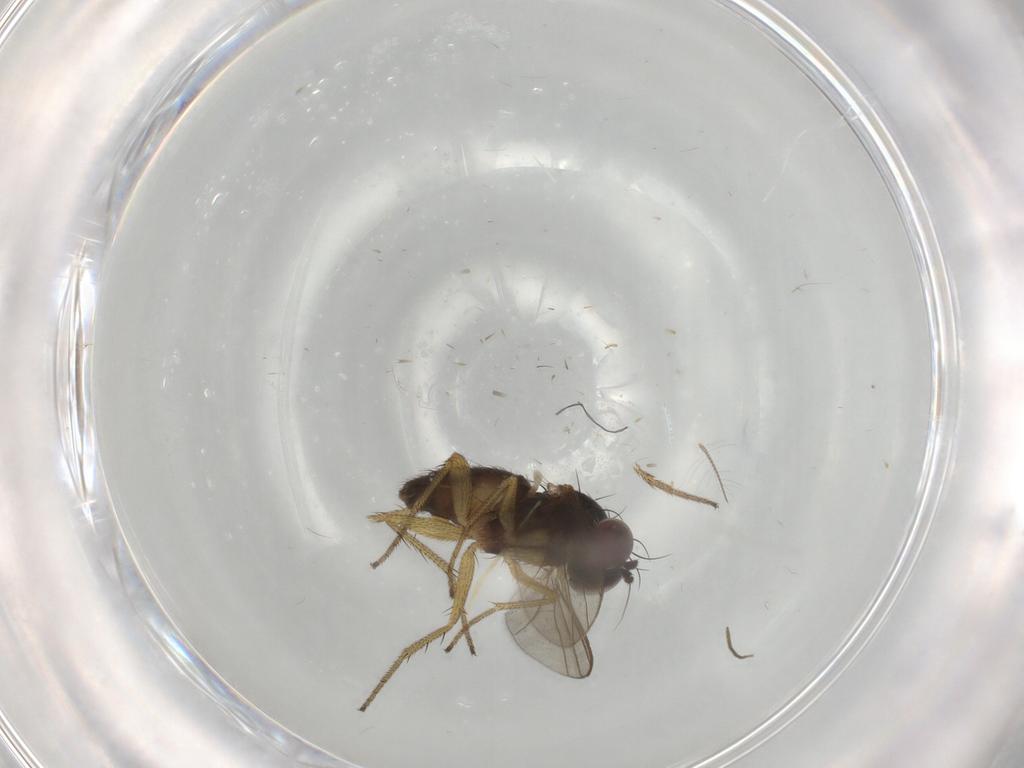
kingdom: Animalia
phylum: Arthropoda
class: Insecta
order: Diptera
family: Dolichopodidae
